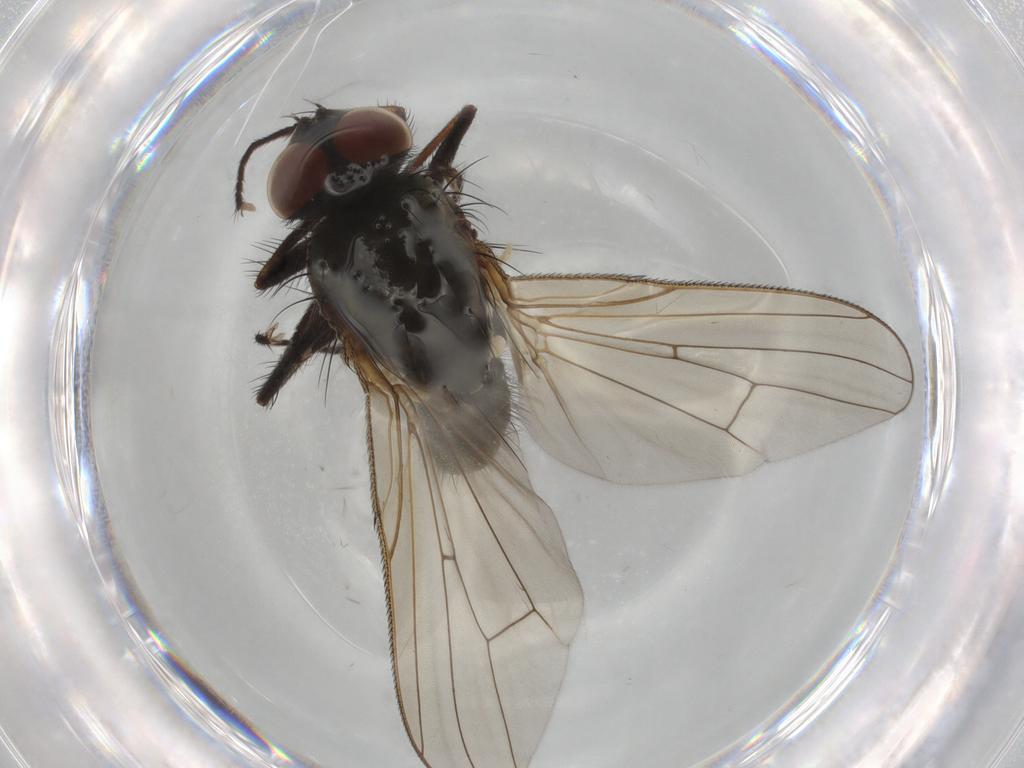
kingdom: Animalia
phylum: Arthropoda
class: Insecta
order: Diptera
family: Anthomyiidae
